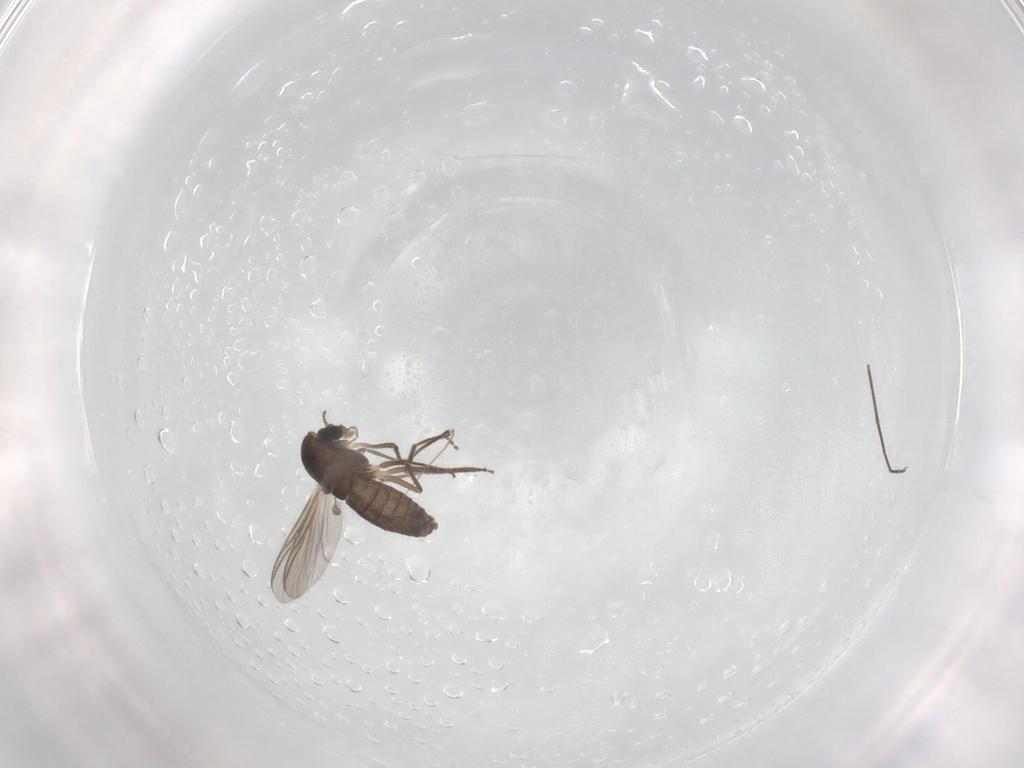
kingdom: Animalia
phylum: Arthropoda
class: Insecta
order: Diptera
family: Chironomidae
